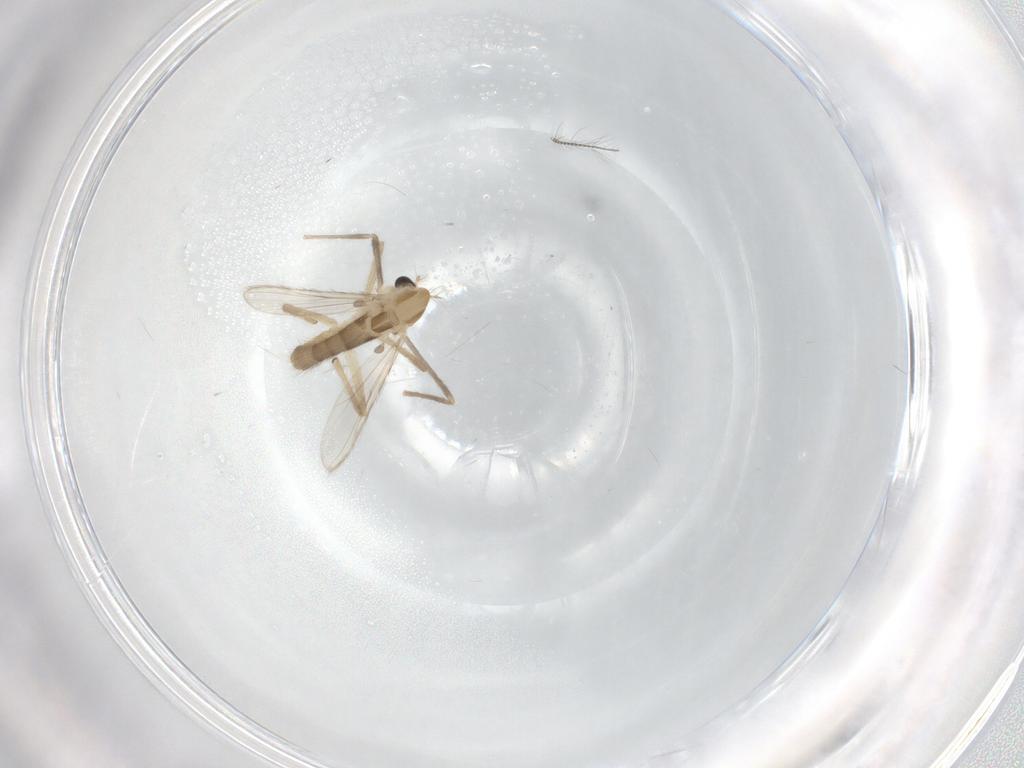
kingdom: Animalia
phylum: Arthropoda
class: Insecta
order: Diptera
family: Chironomidae
